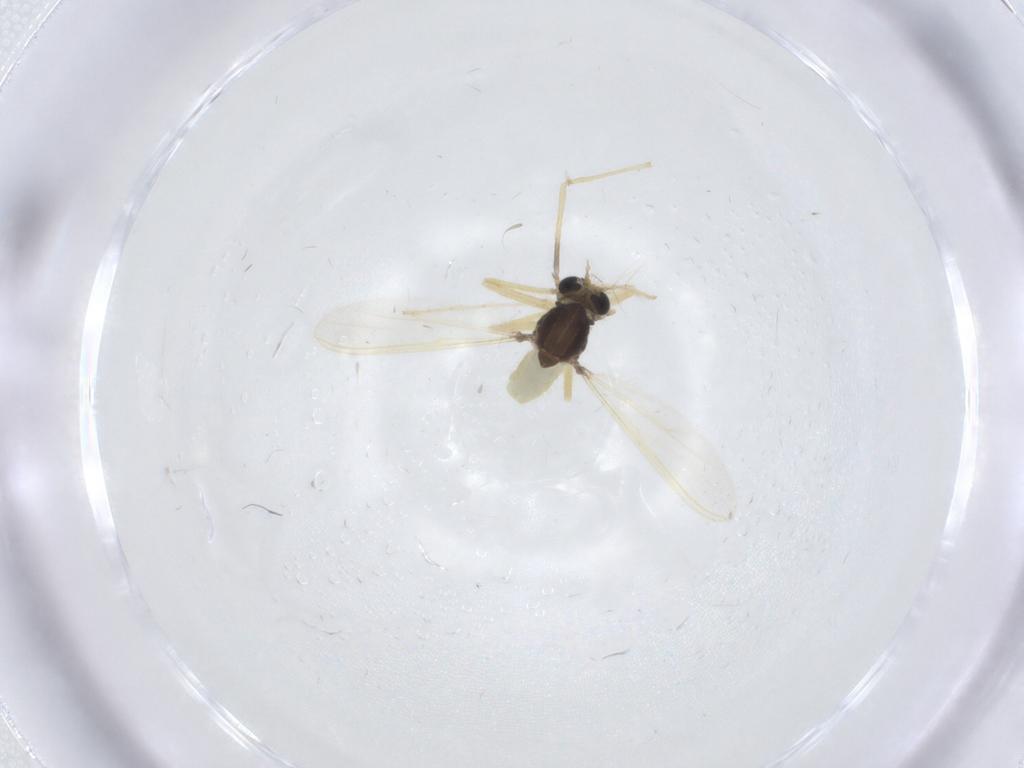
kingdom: Animalia
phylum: Arthropoda
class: Insecta
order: Diptera
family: Chironomidae
